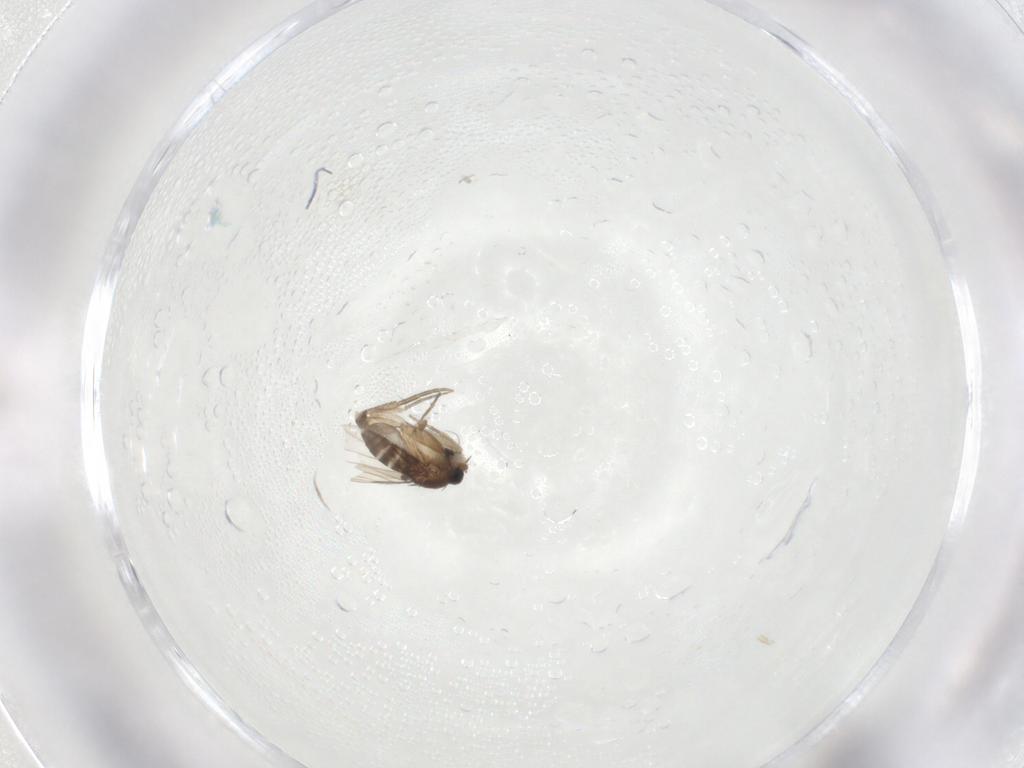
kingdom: Animalia
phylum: Arthropoda
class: Insecta
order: Diptera
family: Phoridae
